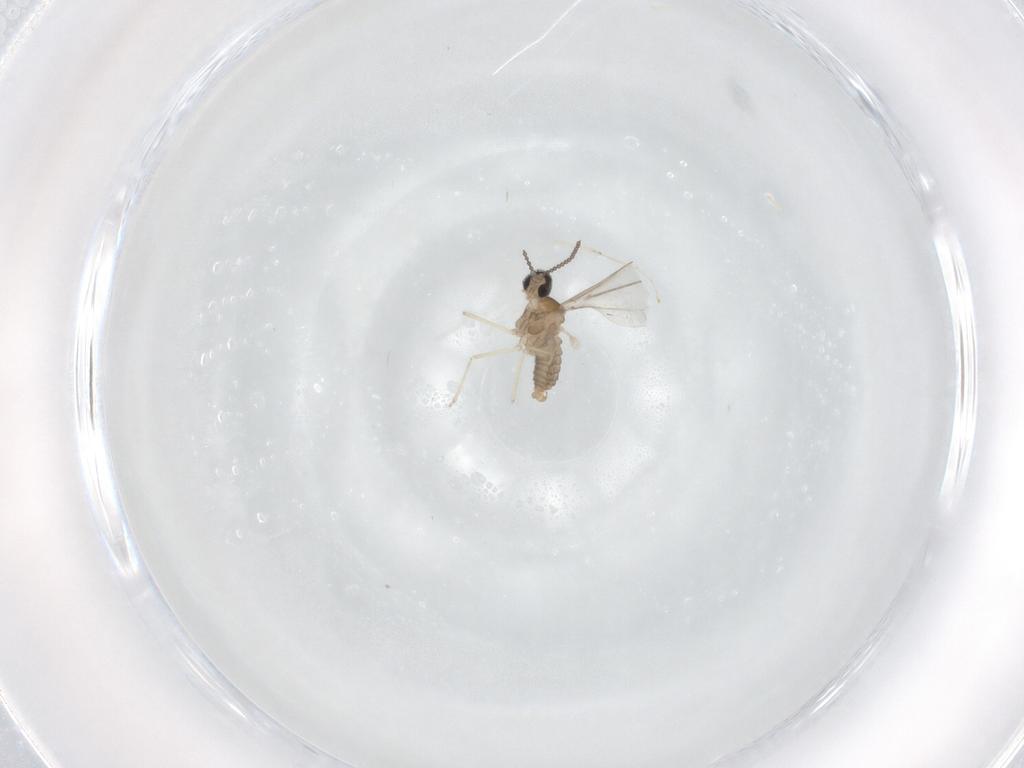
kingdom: Animalia
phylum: Arthropoda
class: Insecta
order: Diptera
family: Cecidomyiidae
